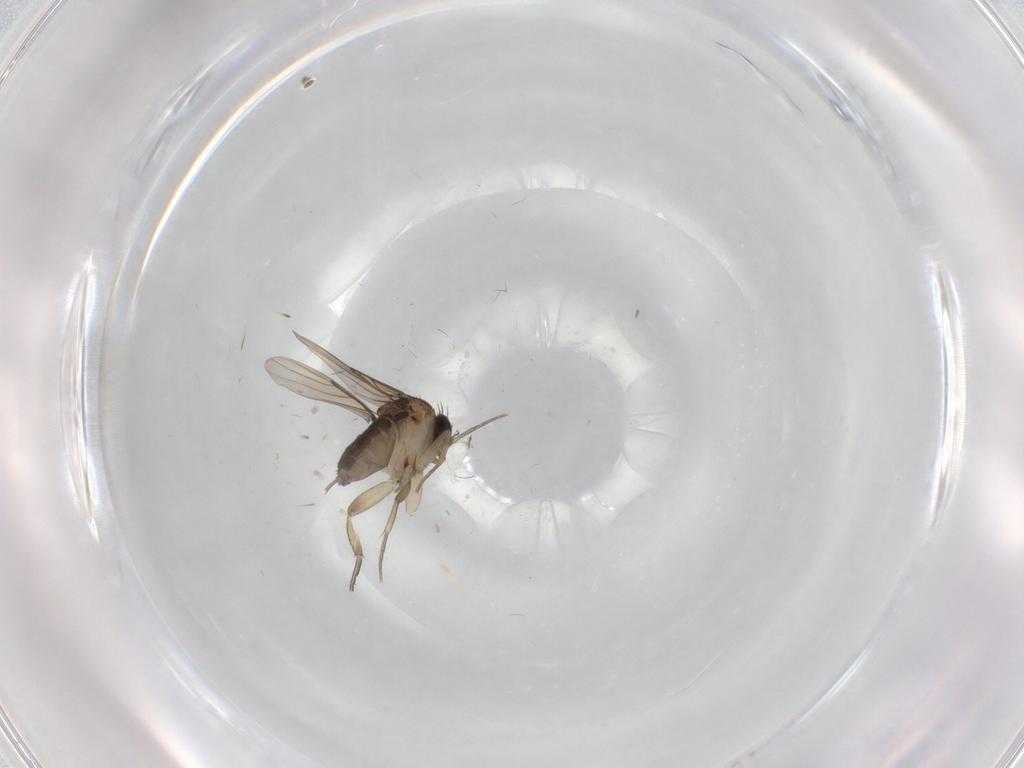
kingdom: Animalia
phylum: Arthropoda
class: Insecta
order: Diptera
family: Phoridae
